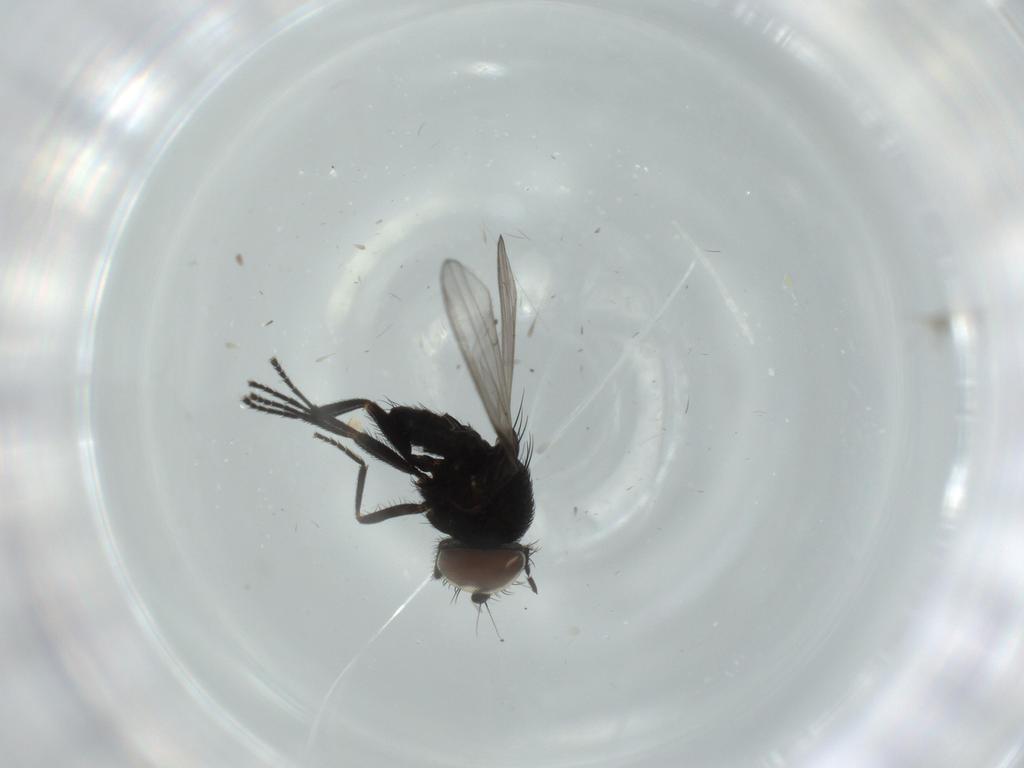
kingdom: Animalia
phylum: Arthropoda
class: Insecta
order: Diptera
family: Milichiidae
